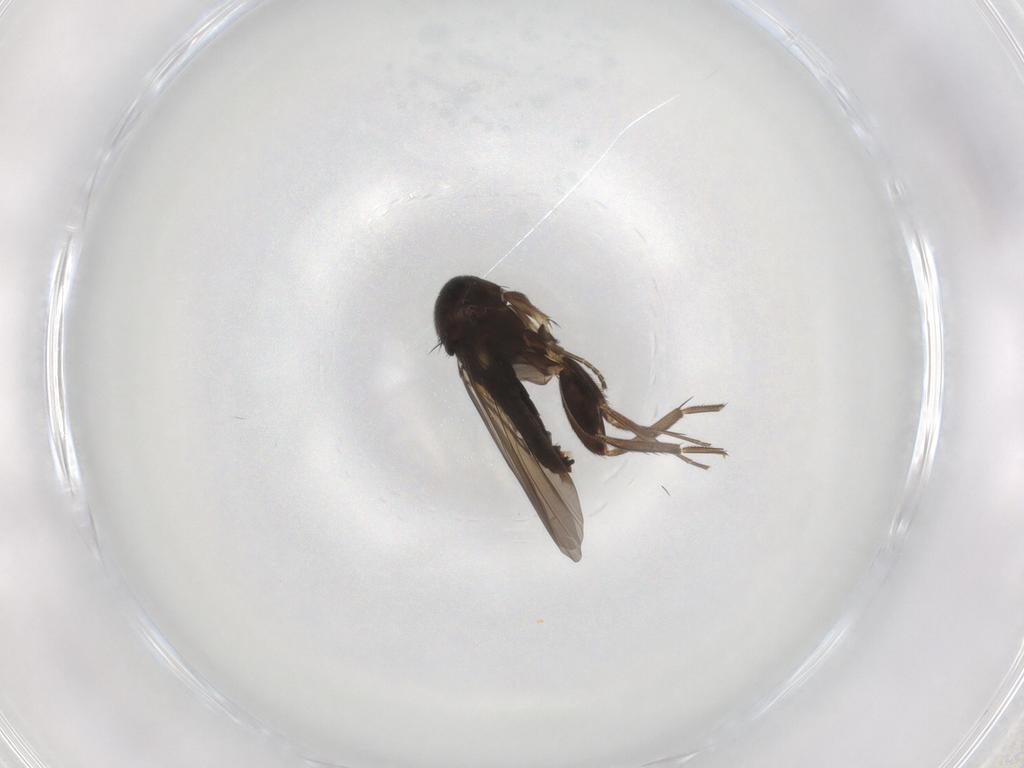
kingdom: Animalia
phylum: Arthropoda
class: Insecta
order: Diptera
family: Phoridae
